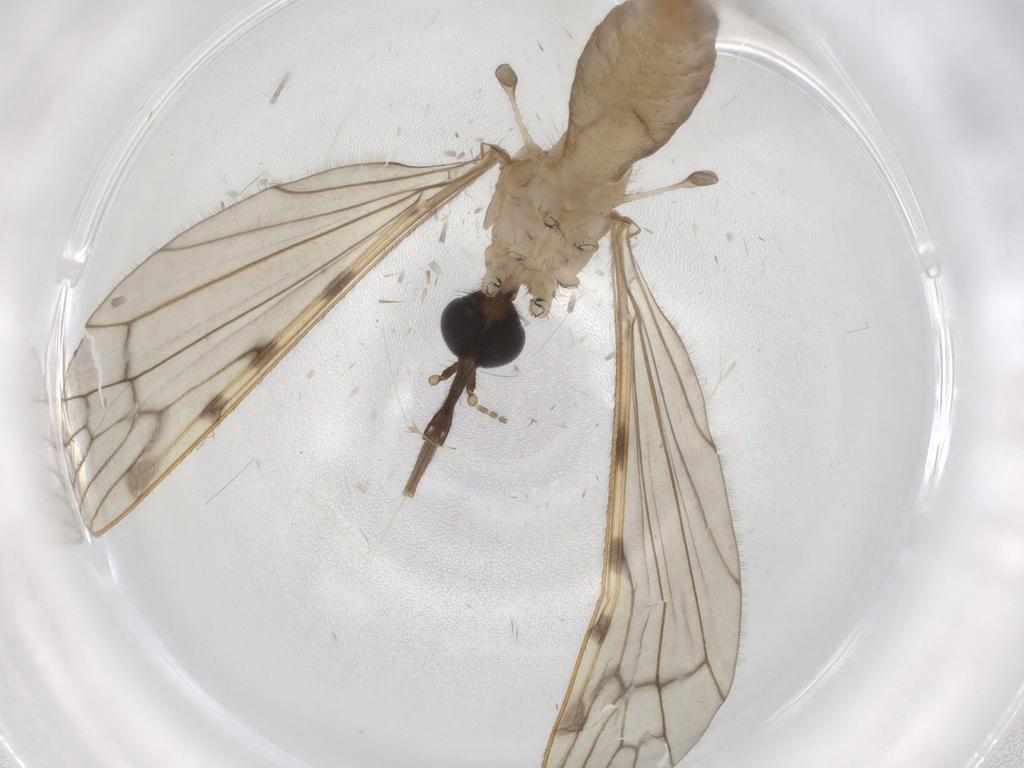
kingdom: Animalia
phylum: Arthropoda
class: Insecta
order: Diptera
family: Limoniidae
